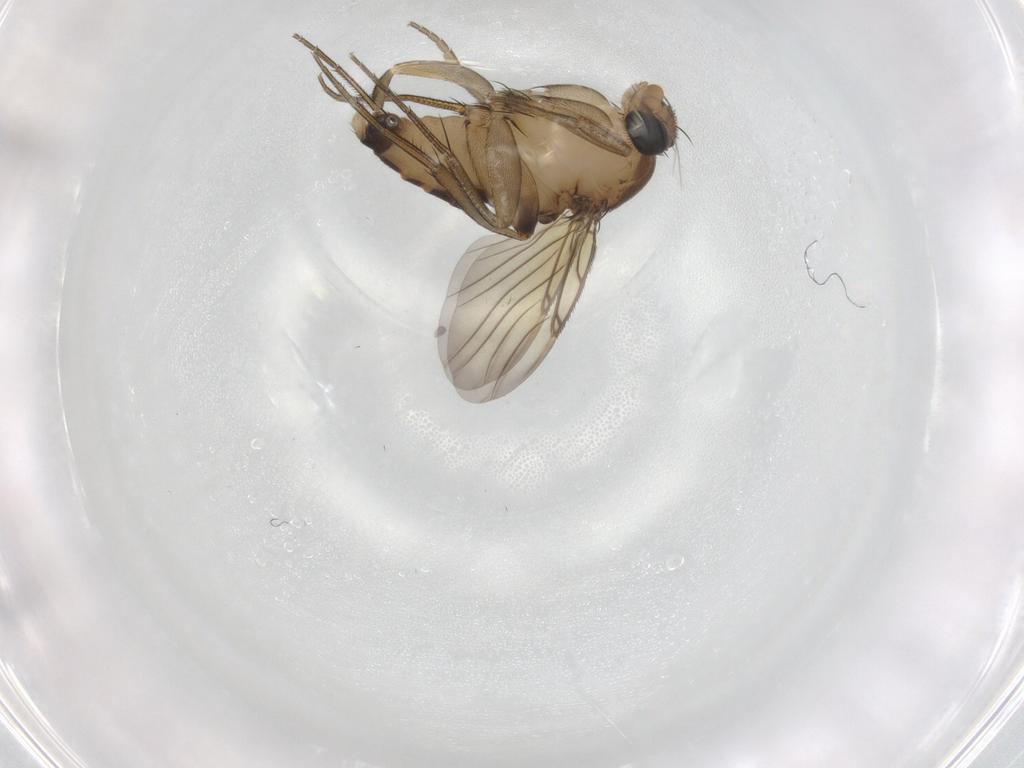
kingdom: Animalia
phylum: Arthropoda
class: Insecta
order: Diptera
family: Phoridae
